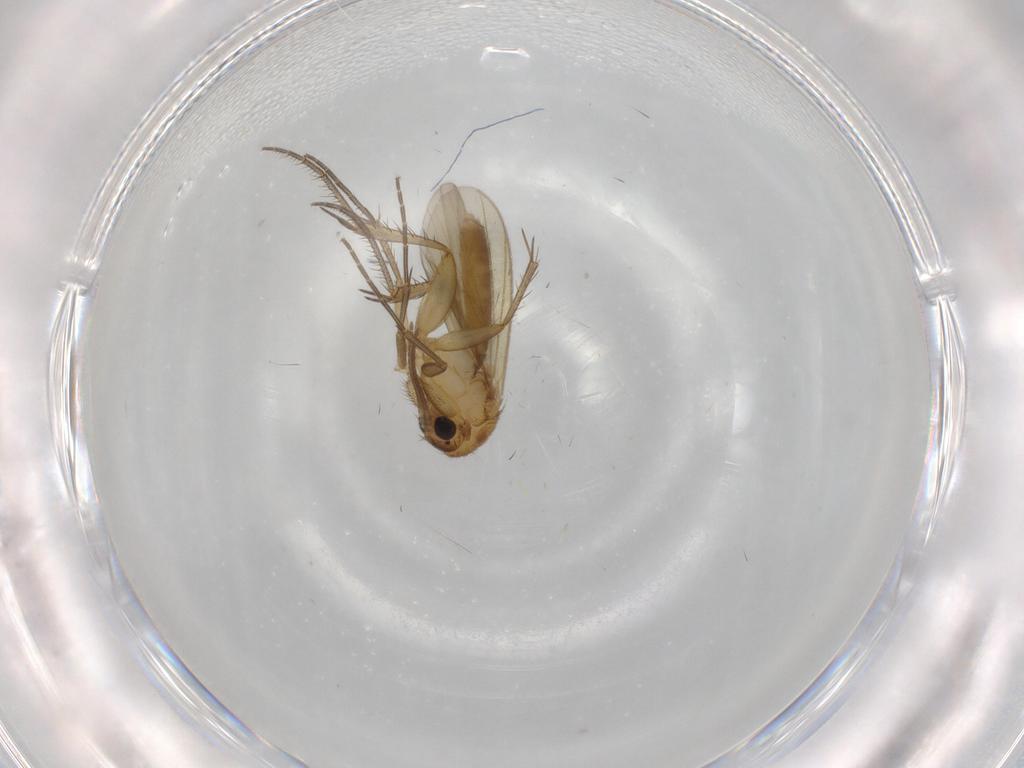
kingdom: Animalia
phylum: Arthropoda
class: Insecta
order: Diptera
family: Mycetophilidae
